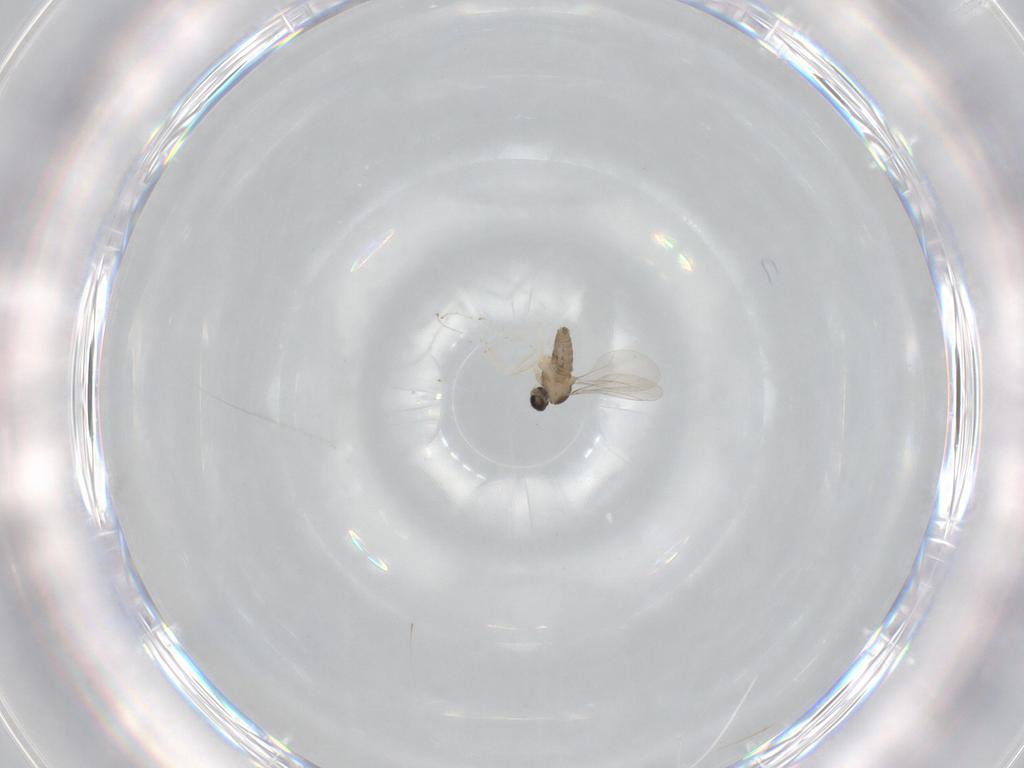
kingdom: Animalia
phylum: Arthropoda
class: Insecta
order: Diptera
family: Cecidomyiidae
